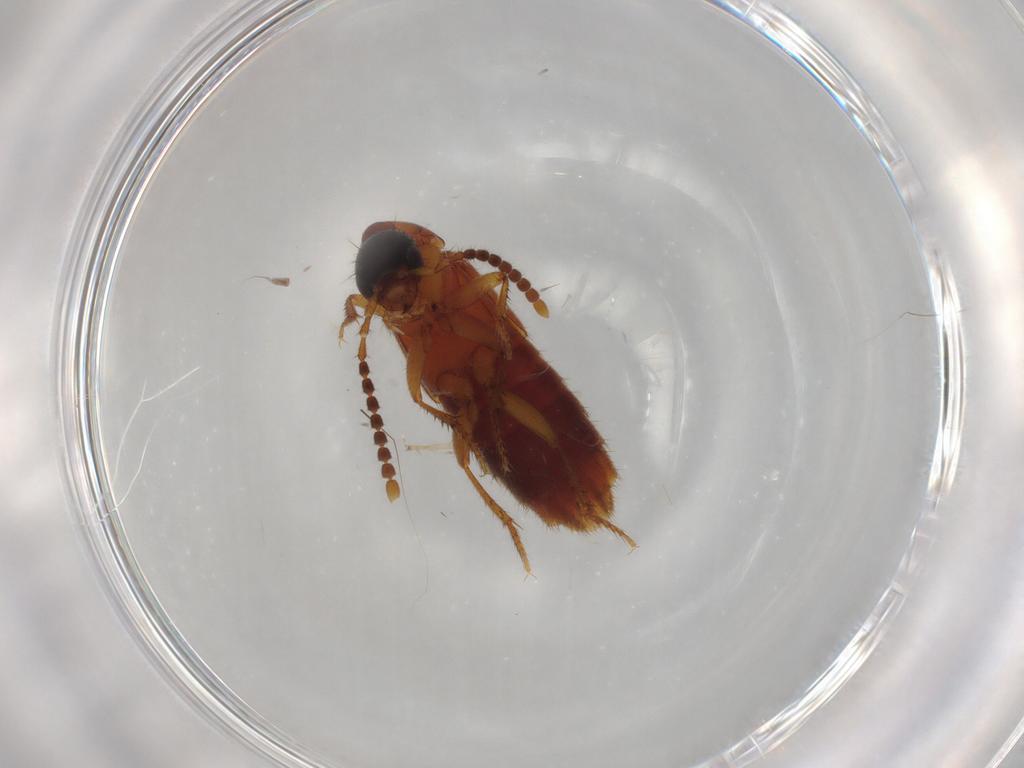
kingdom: Animalia
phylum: Arthropoda
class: Insecta
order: Coleoptera
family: Staphylinidae
